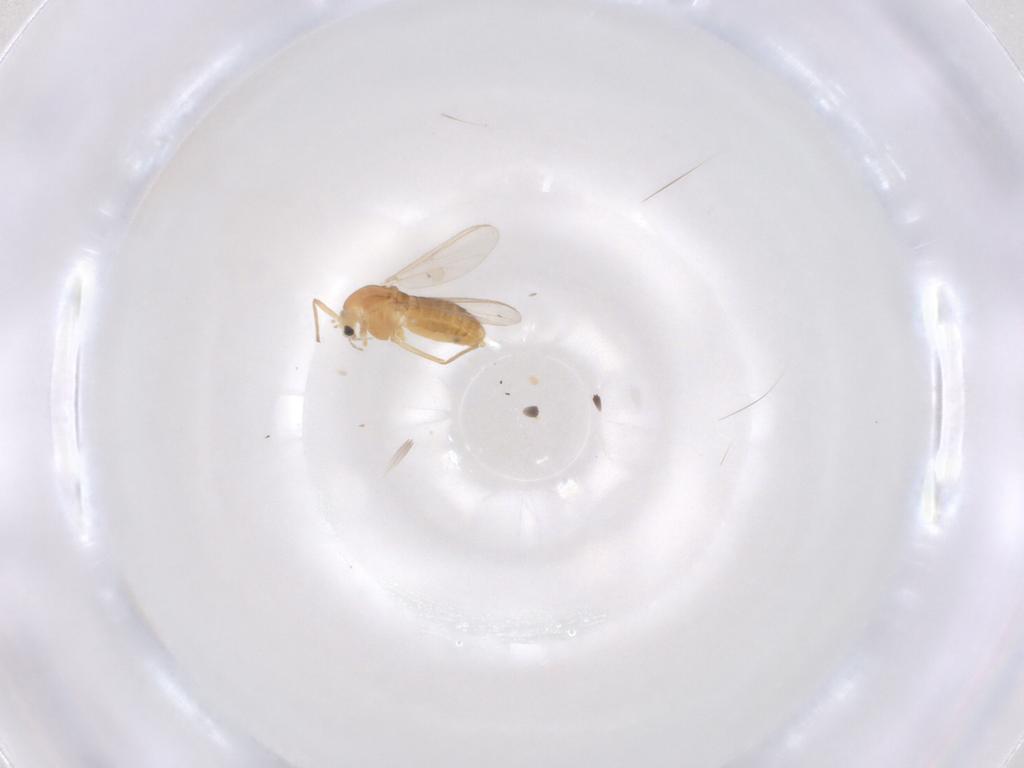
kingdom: Animalia
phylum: Arthropoda
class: Insecta
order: Diptera
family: Chironomidae
